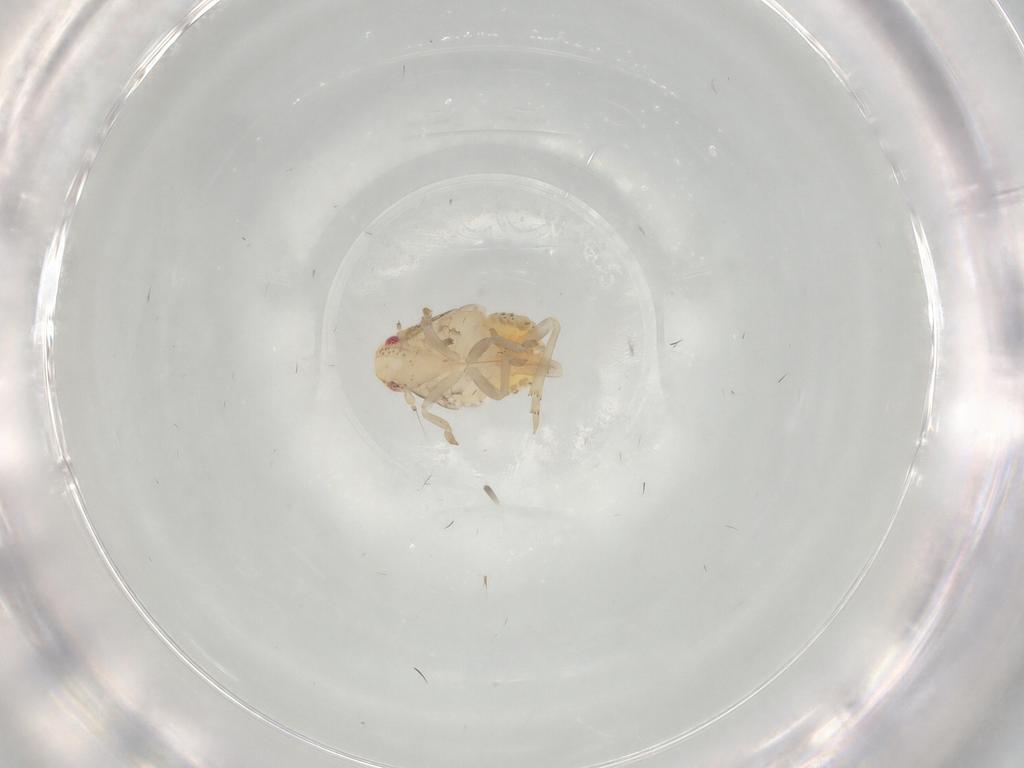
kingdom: Animalia
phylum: Arthropoda
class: Insecta
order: Hemiptera
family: Flatidae
